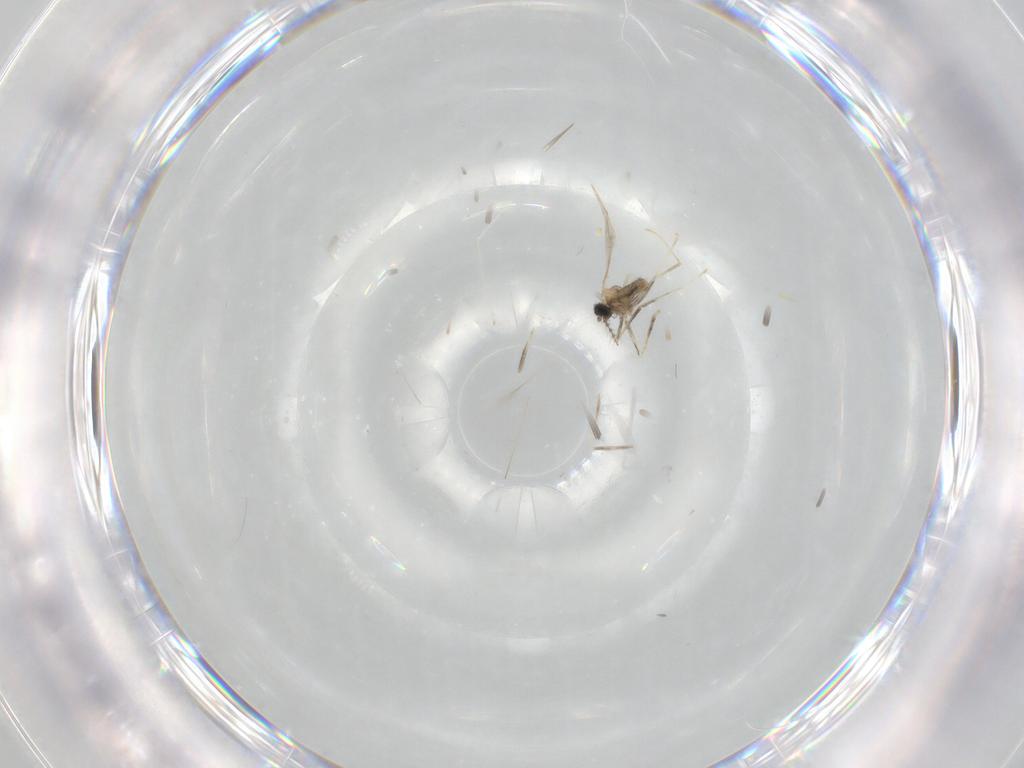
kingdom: Animalia
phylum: Arthropoda
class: Insecta
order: Diptera
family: Cecidomyiidae
